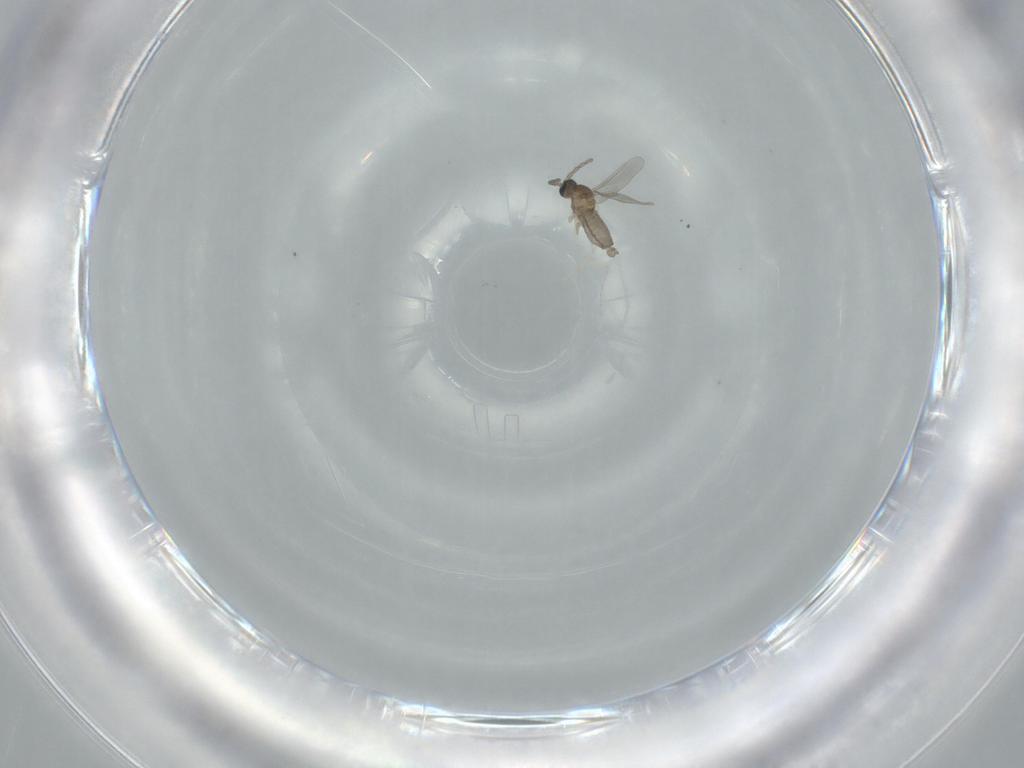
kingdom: Animalia
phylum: Arthropoda
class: Insecta
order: Diptera
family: Cecidomyiidae
